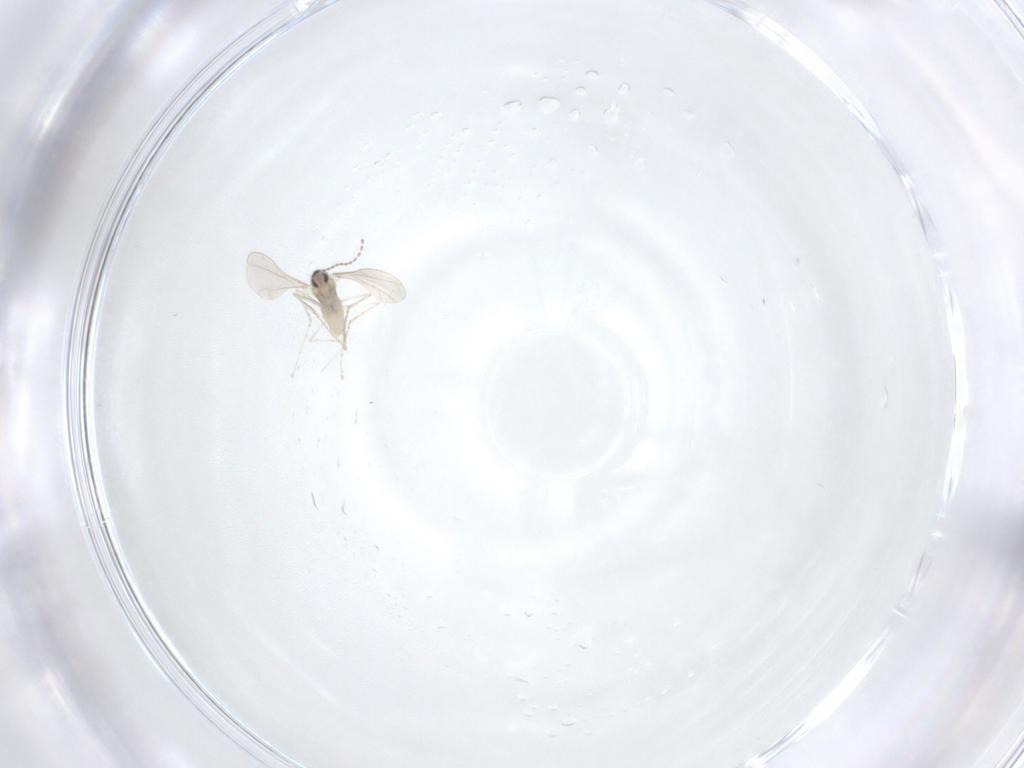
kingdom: Animalia
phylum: Arthropoda
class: Insecta
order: Diptera
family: Cecidomyiidae
